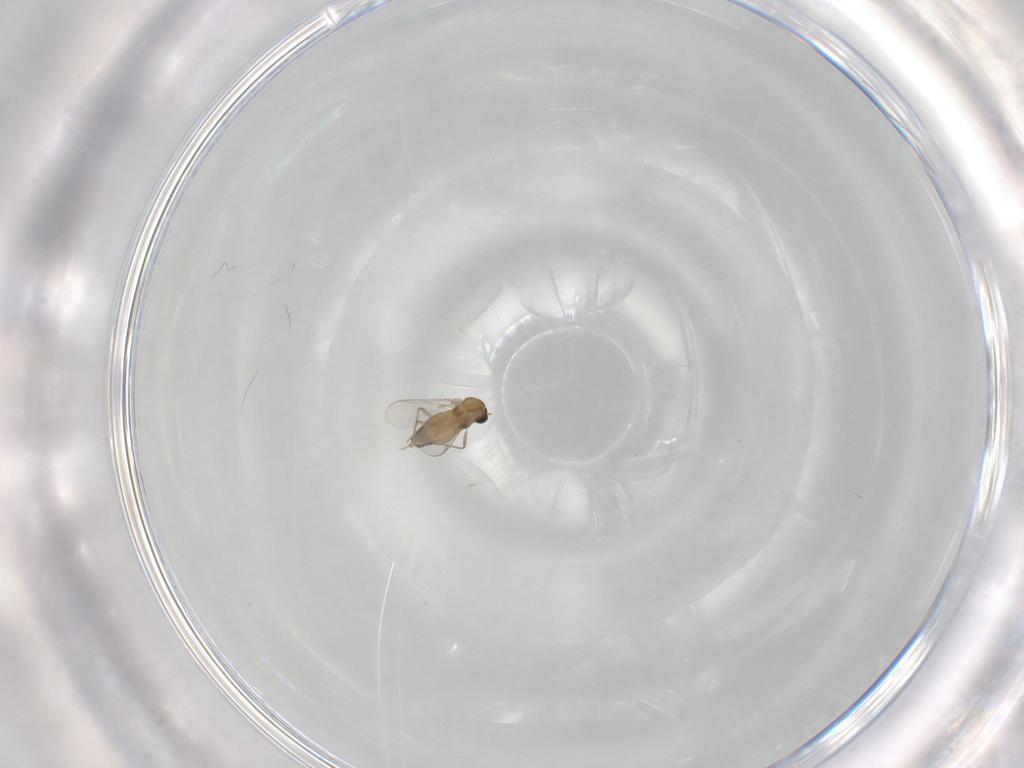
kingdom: Animalia
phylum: Arthropoda
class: Insecta
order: Diptera
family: Chironomidae
